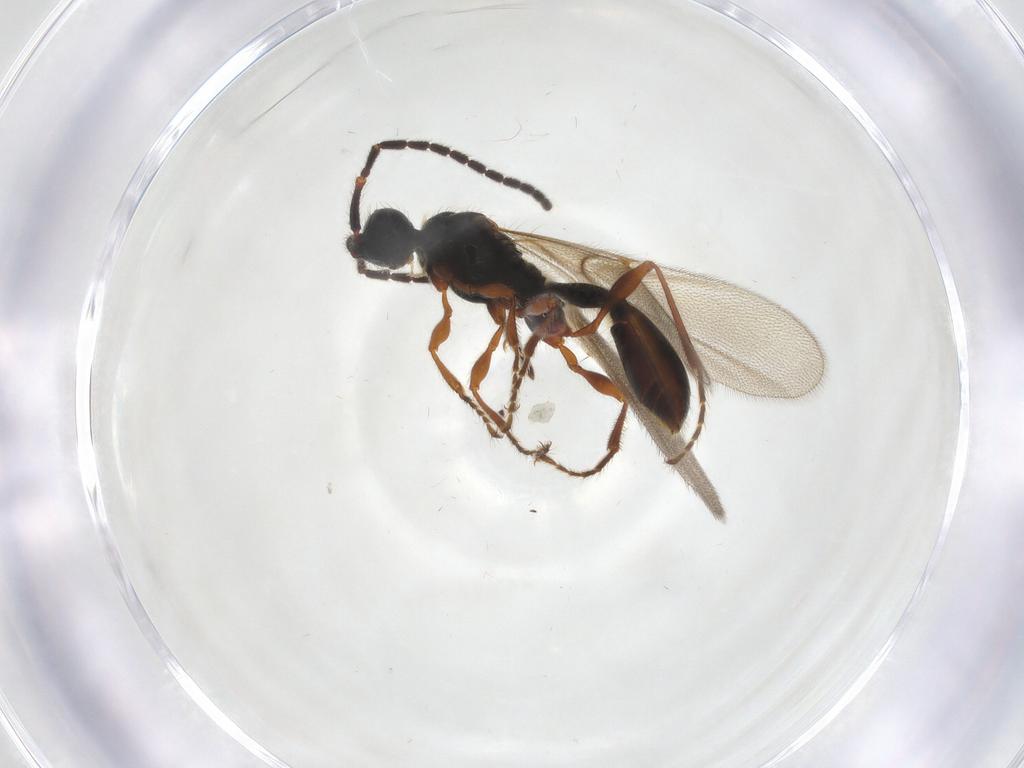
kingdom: Animalia
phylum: Arthropoda
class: Insecta
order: Hymenoptera
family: Diapriidae
